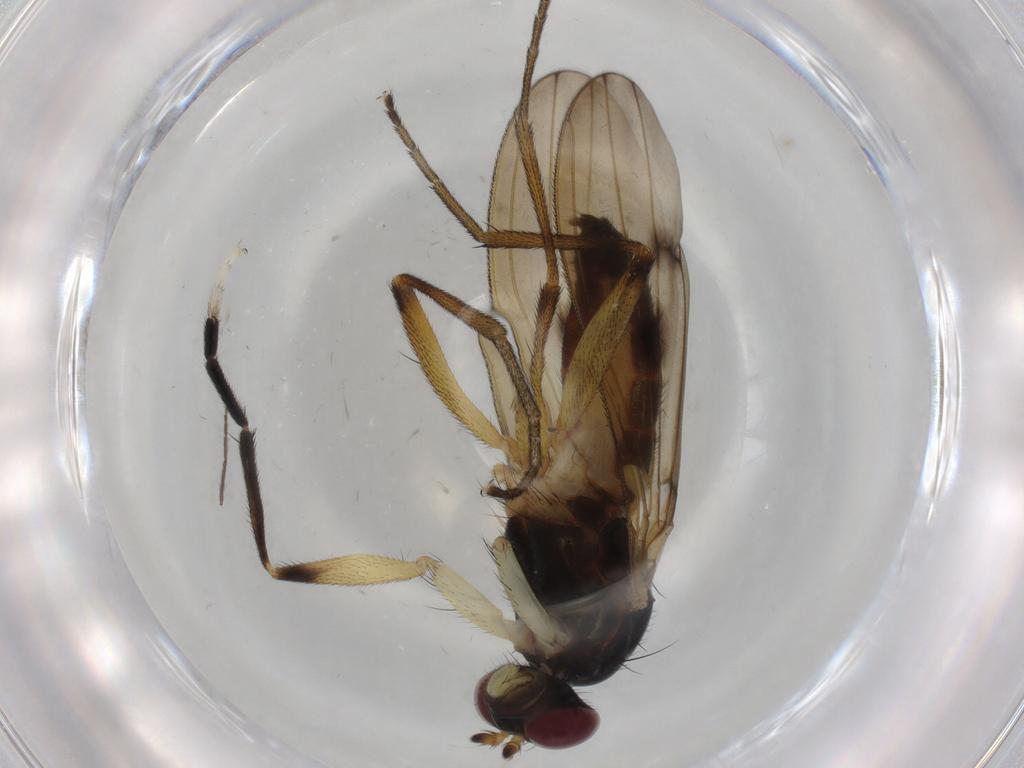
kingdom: Animalia
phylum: Arthropoda
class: Insecta
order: Diptera
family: Sciomyzidae
